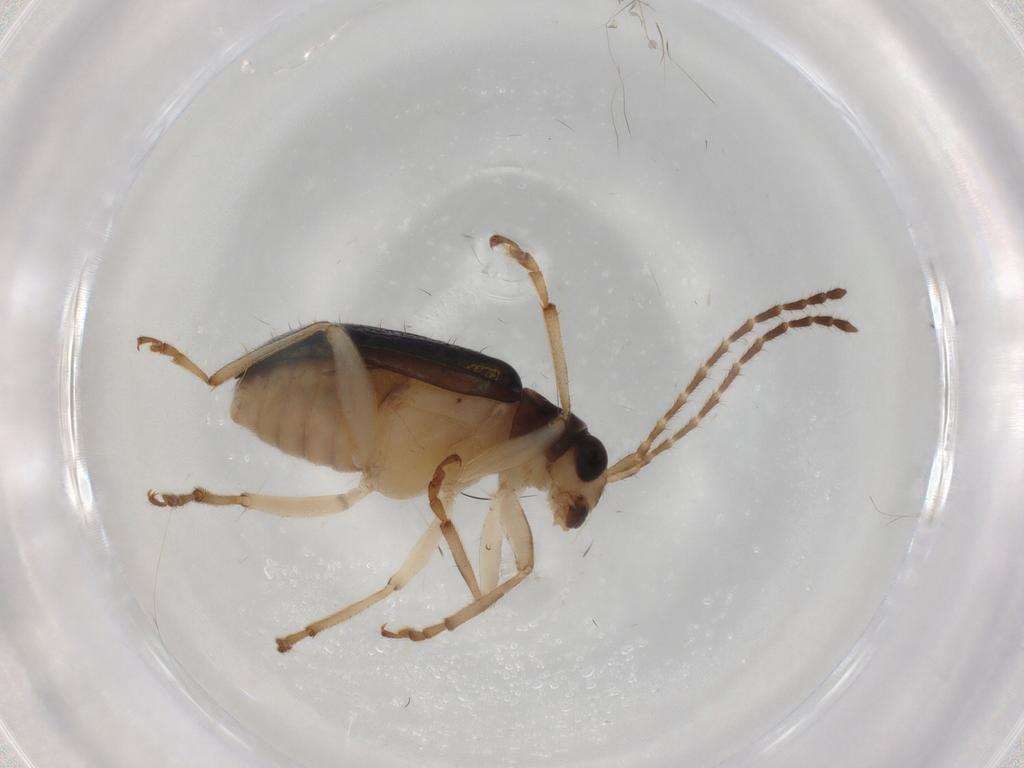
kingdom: Animalia
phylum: Arthropoda
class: Insecta
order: Coleoptera
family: Chrysomelidae
